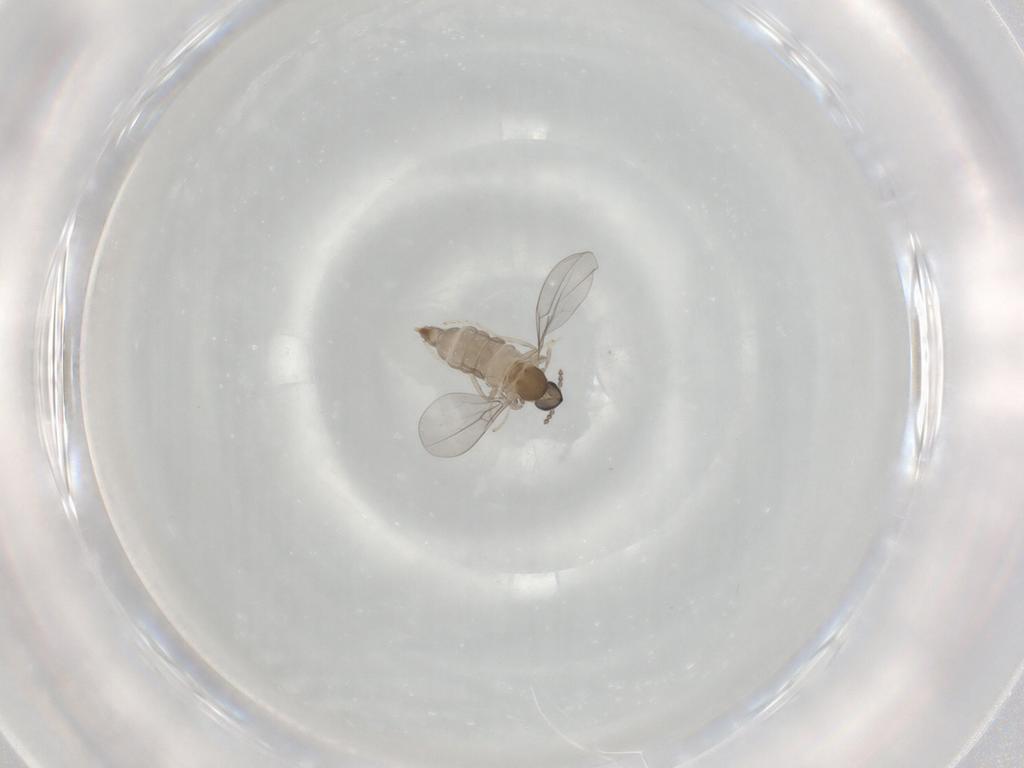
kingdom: Animalia
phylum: Arthropoda
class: Insecta
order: Diptera
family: Chironomidae
